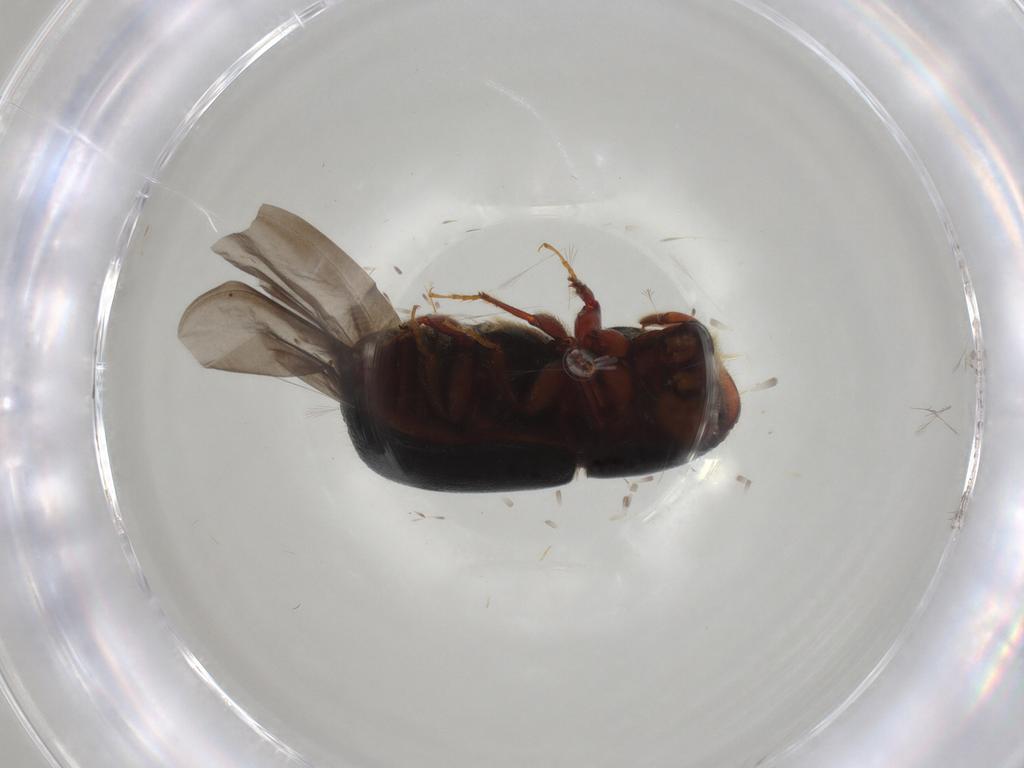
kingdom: Animalia
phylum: Arthropoda
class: Insecta
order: Coleoptera
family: Curculionidae
